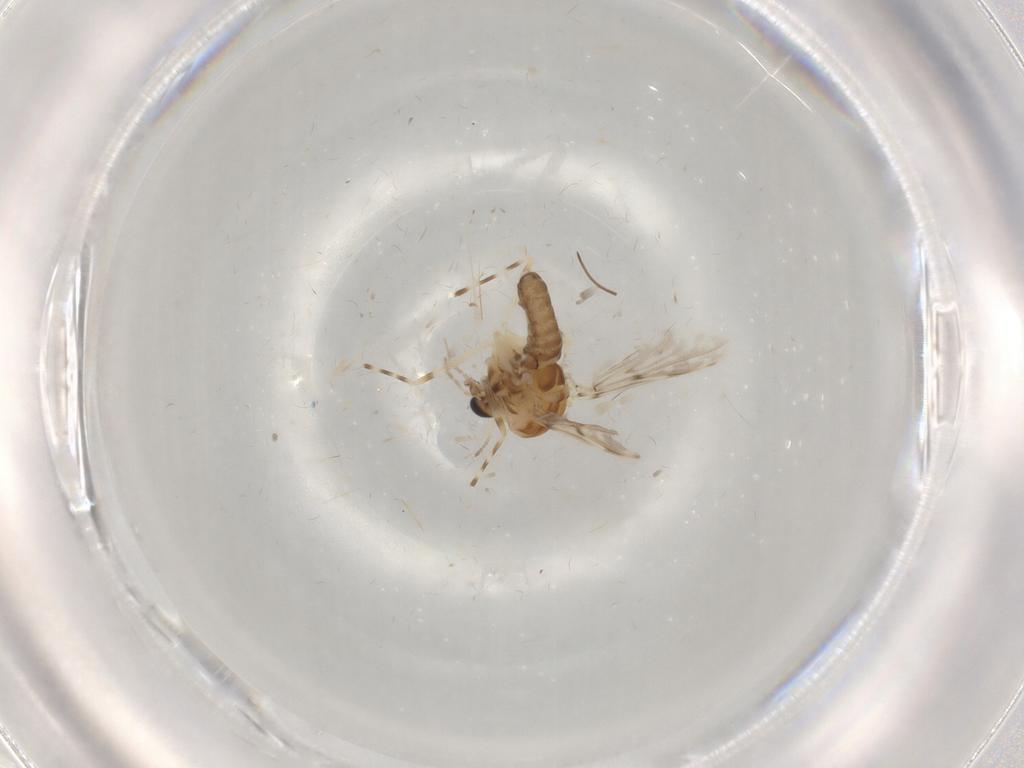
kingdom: Animalia
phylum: Arthropoda
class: Insecta
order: Diptera
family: Chironomidae
